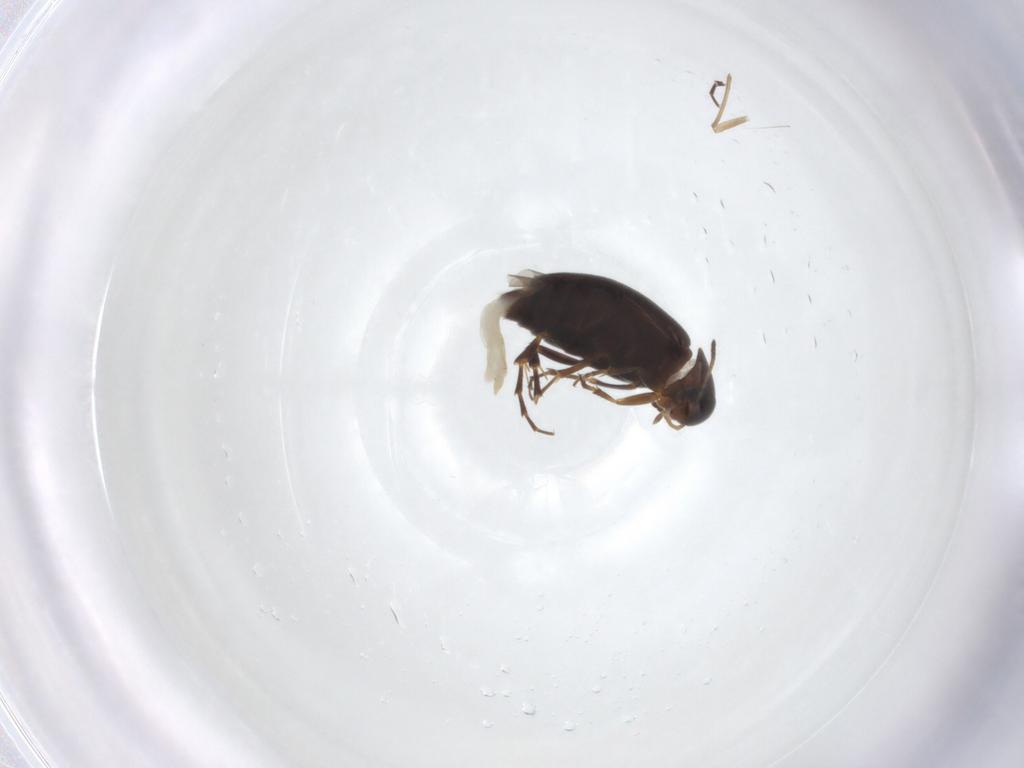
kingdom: Animalia
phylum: Arthropoda
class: Insecta
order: Coleoptera
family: Scraptiidae
